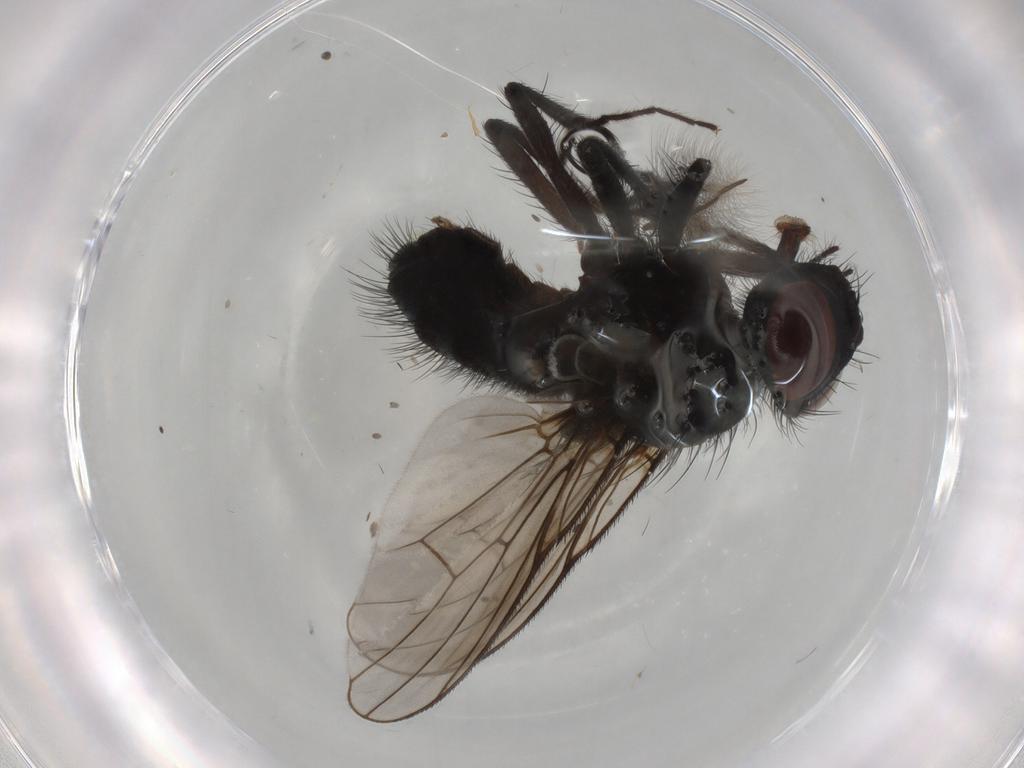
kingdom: Animalia
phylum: Arthropoda
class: Insecta
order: Diptera
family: Muscidae
